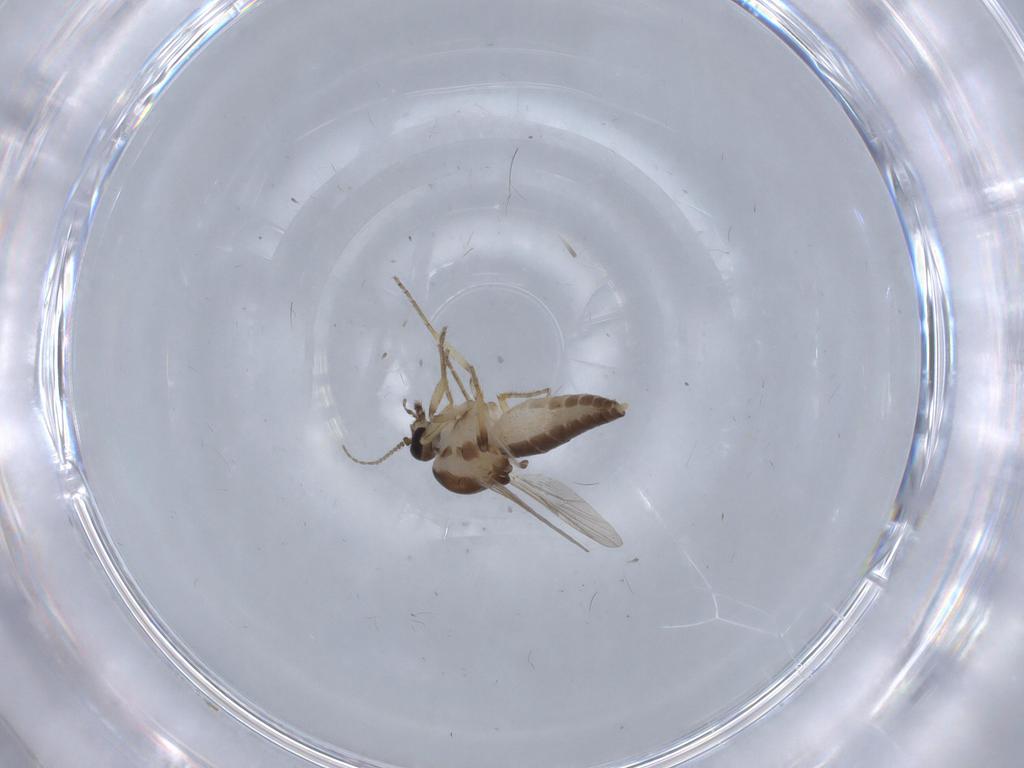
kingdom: Animalia
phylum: Arthropoda
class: Insecta
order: Diptera
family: Ceratopogonidae
